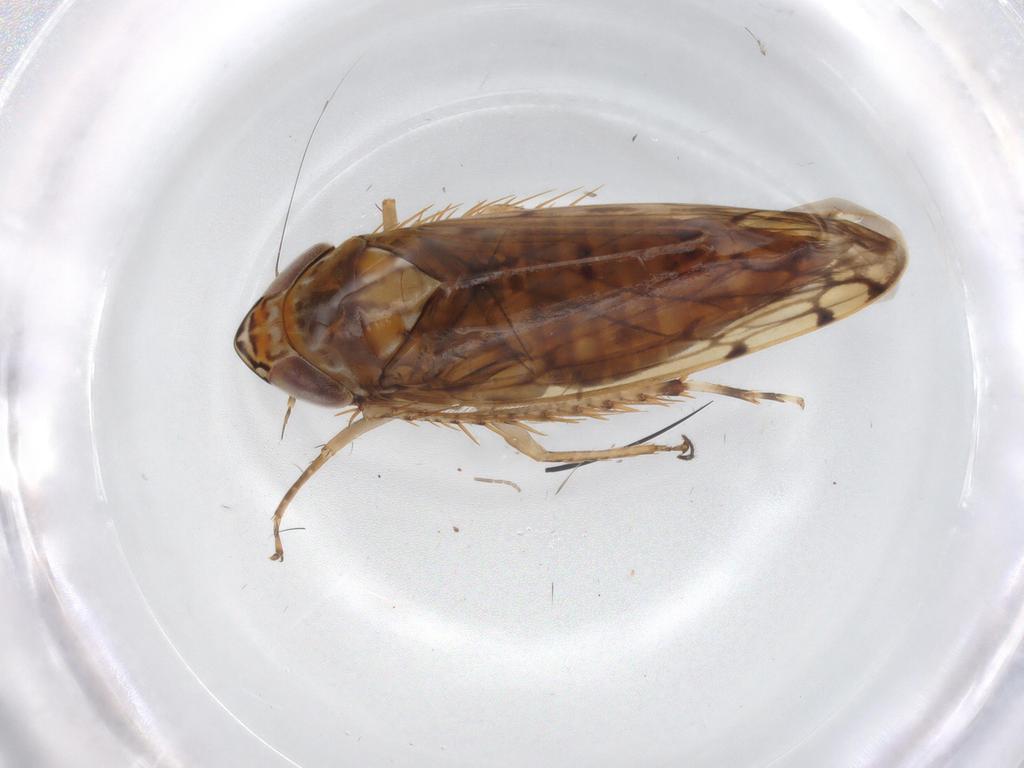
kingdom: Animalia
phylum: Arthropoda
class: Insecta
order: Hemiptera
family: Cicadellidae
